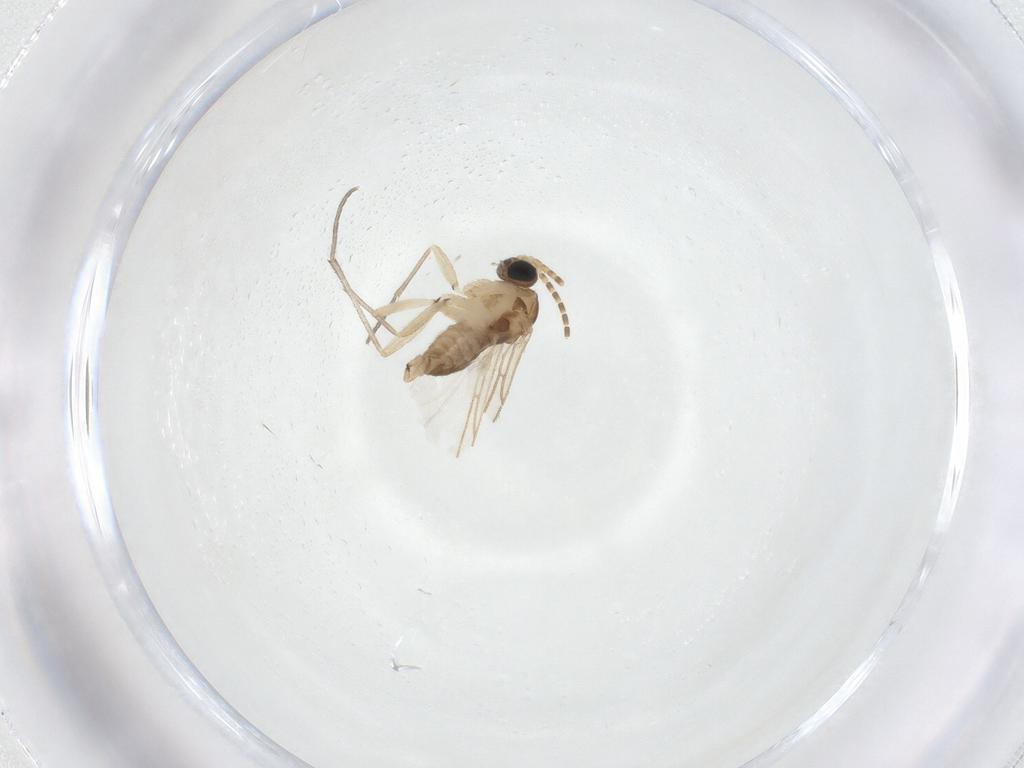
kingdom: Animalia
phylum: Arthropoda
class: Insecta
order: Diptera
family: Sciaridae
